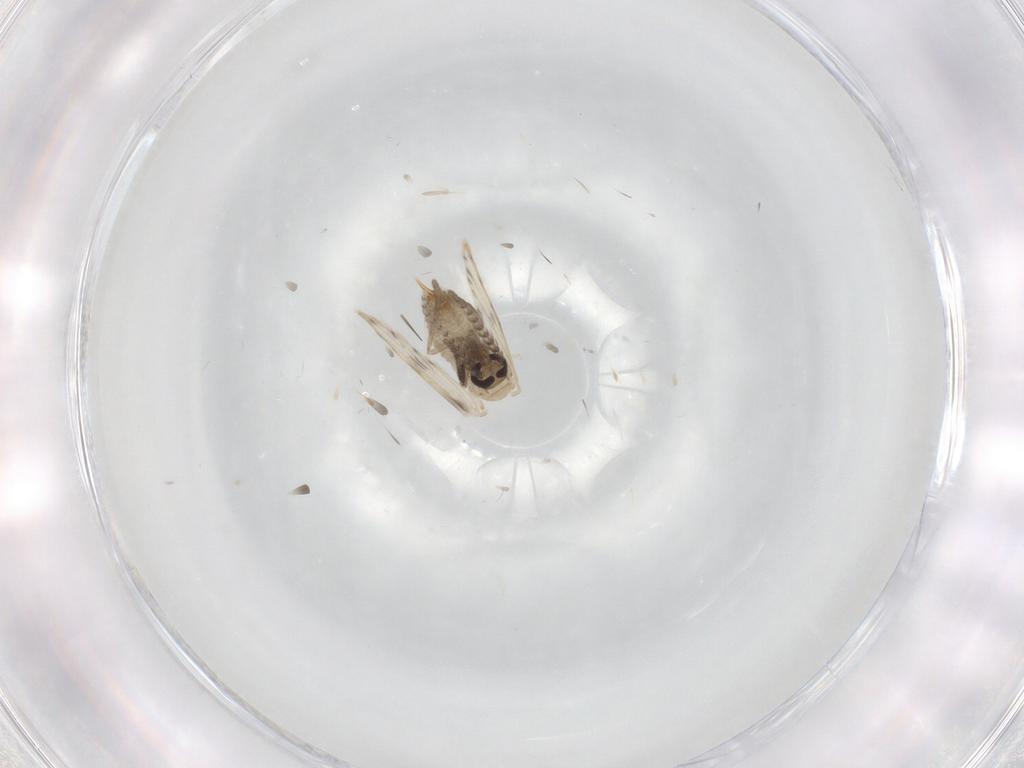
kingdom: Animalia
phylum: Arthropoda
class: Insecta
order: Diptera
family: Psychodidae
